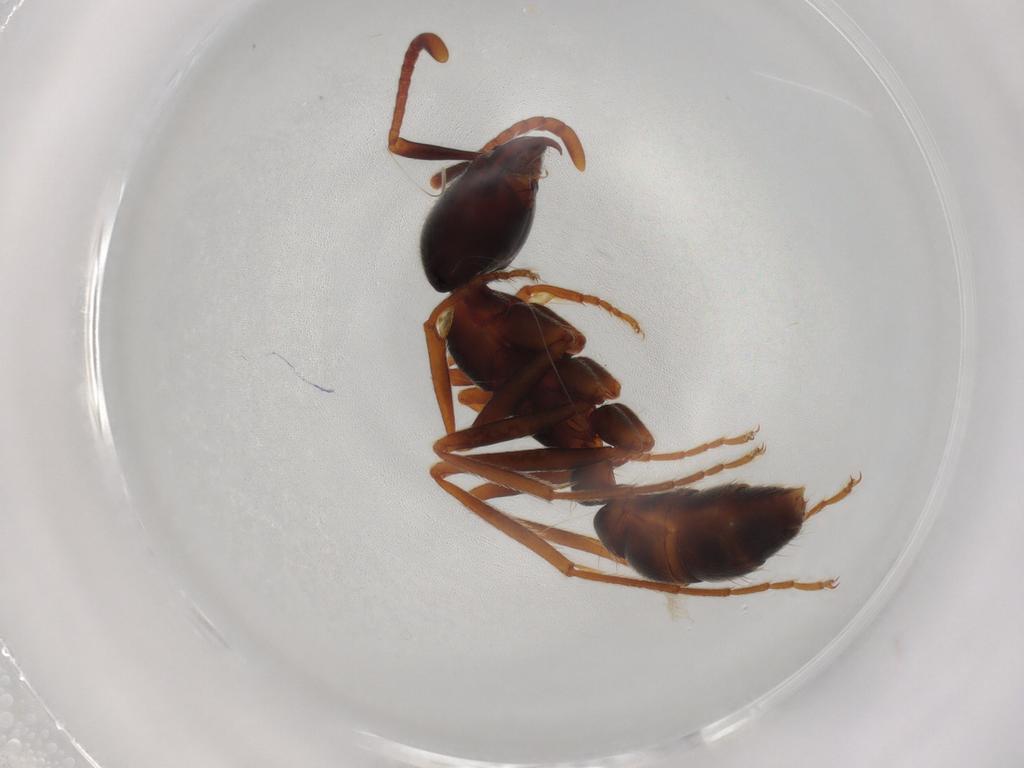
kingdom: Animalia
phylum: Arthropoda
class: Insecta
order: Hymenoptera
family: Formicidae
